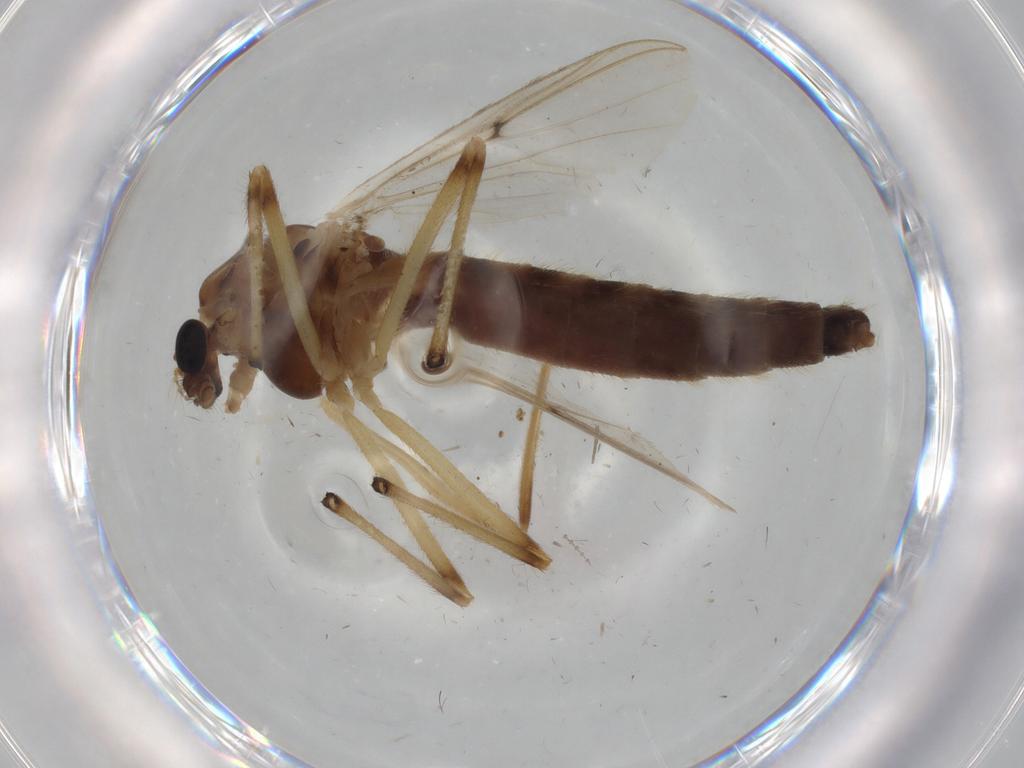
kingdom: Animalia
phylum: Arthropoda
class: Insecta
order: Diptera
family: Chironomidae
